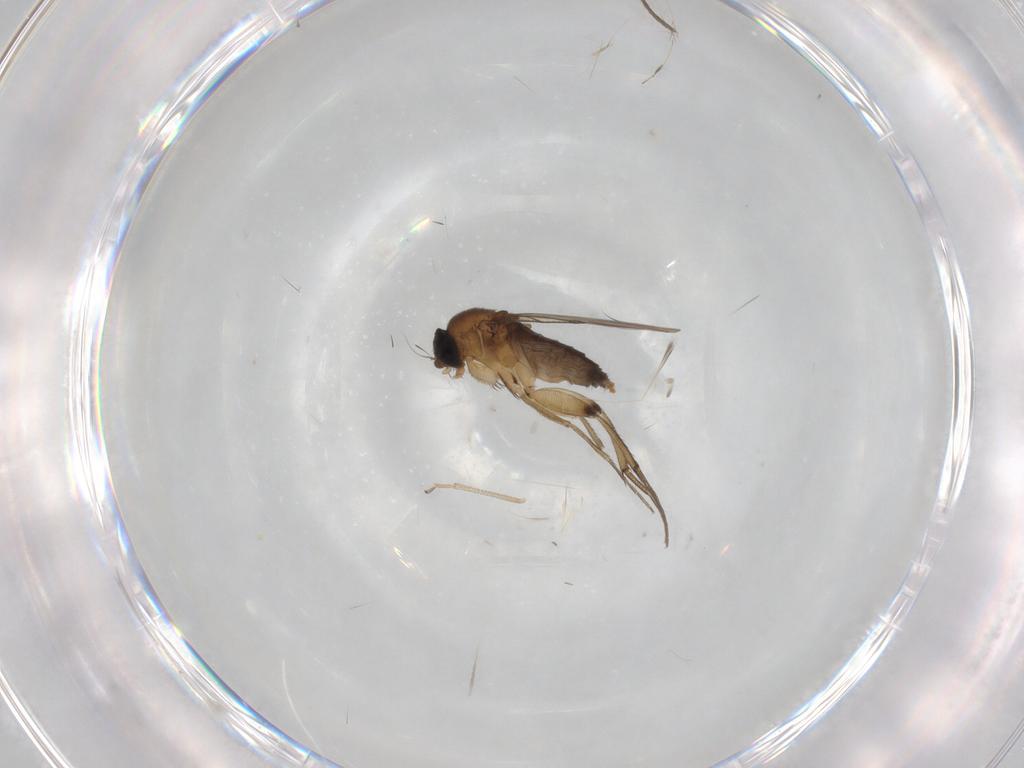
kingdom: Animalia
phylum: Arthropoda
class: Insecta
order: Diptera
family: Phoridae
